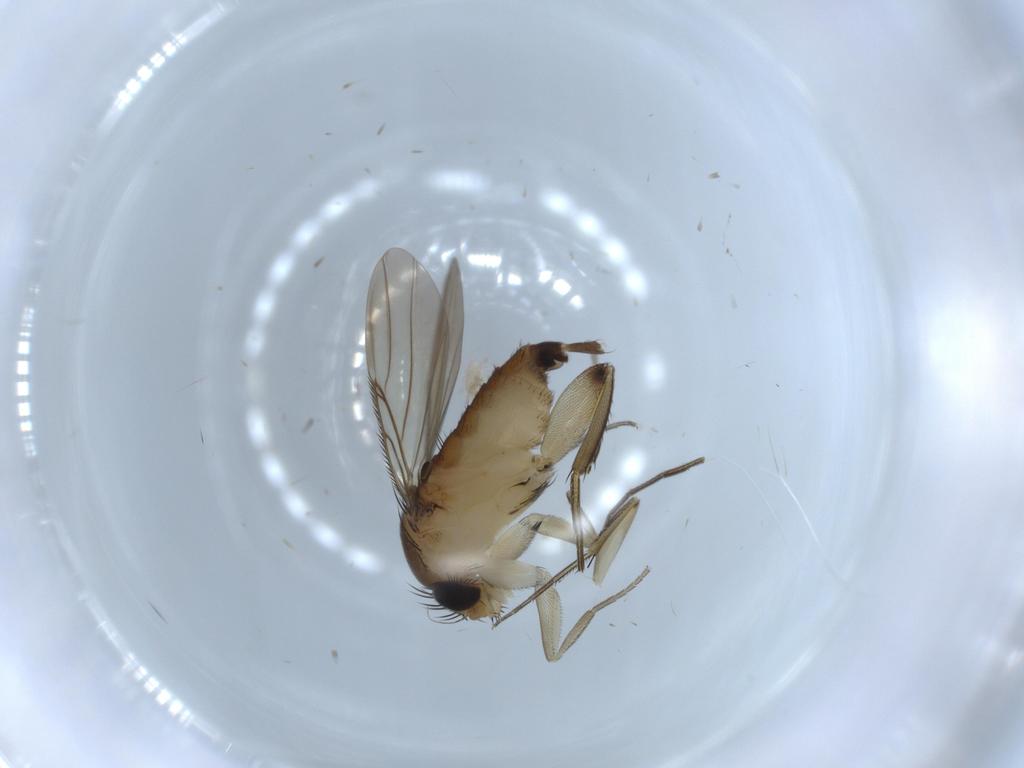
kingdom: Animalia
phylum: Arthropoda
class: Insecta
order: Diptera
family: Phoridae
